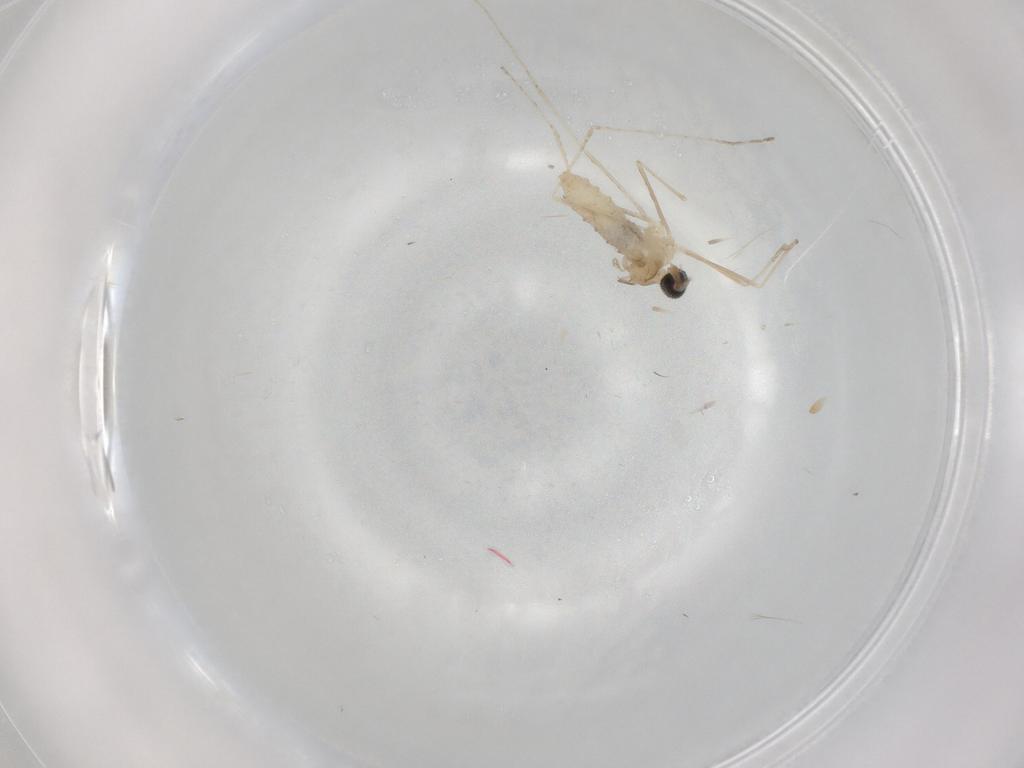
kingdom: Animalia
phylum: Arthropoda
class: Insecta
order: Diptera
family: Cecidomyiidae
